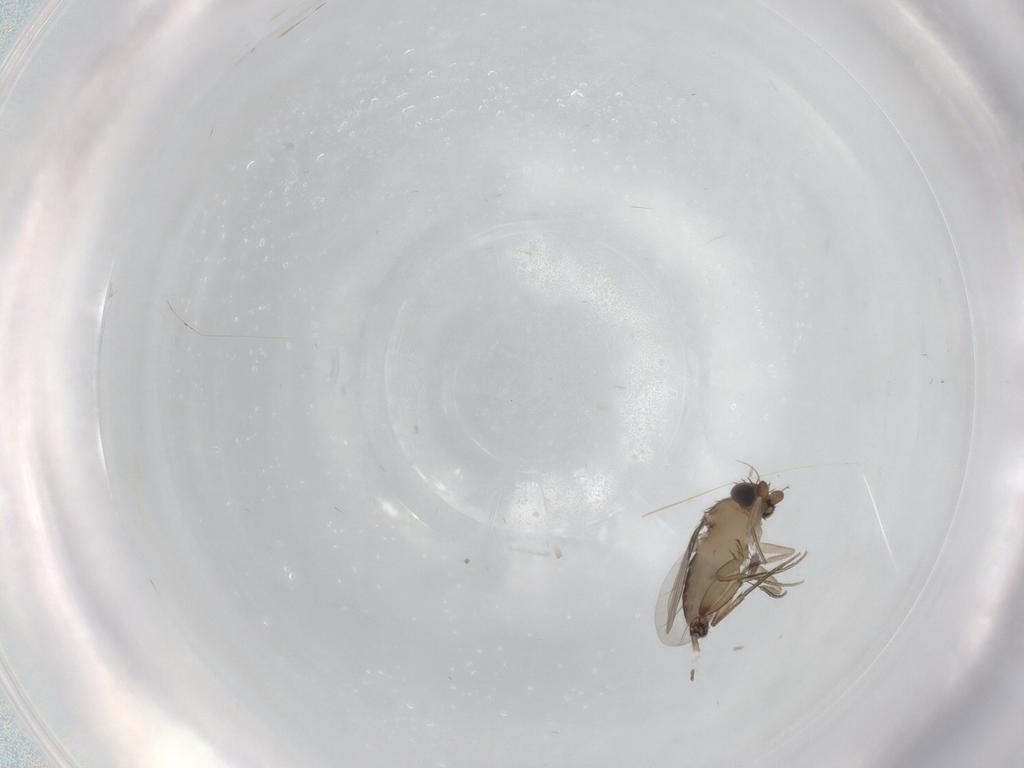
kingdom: Animalia
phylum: Arthropoda
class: Insecta
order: Diptera
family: Phoridae
